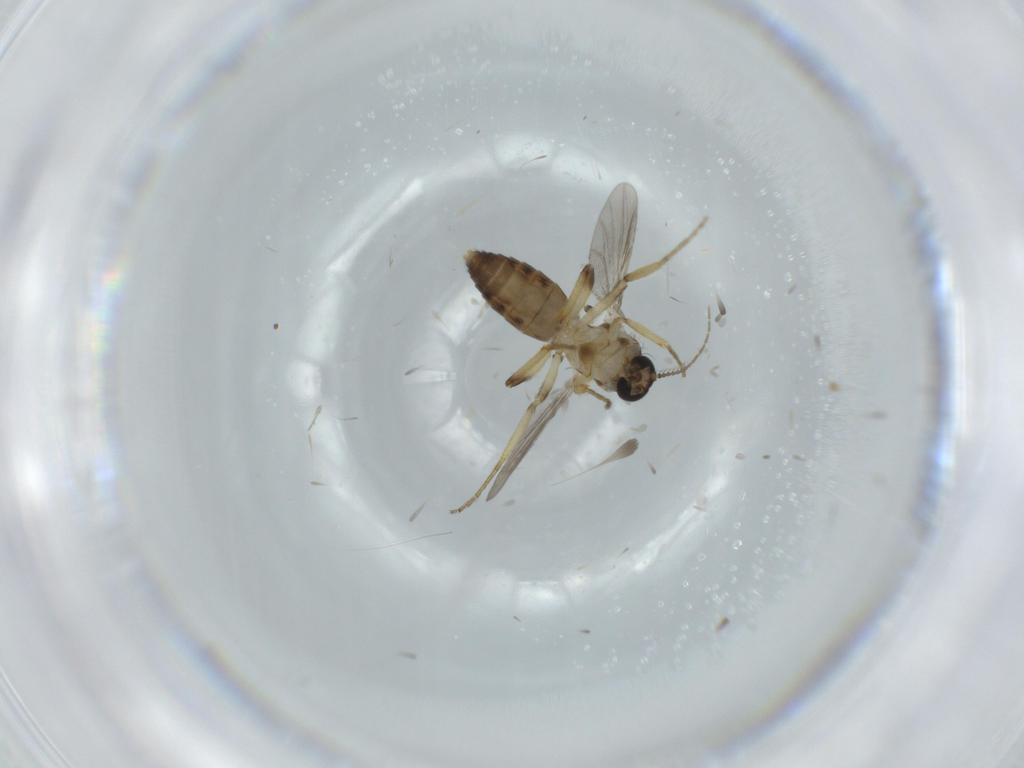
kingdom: Animalia
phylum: Arthropoda
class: Insecta
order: Diptera
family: Ceratopogonidae
